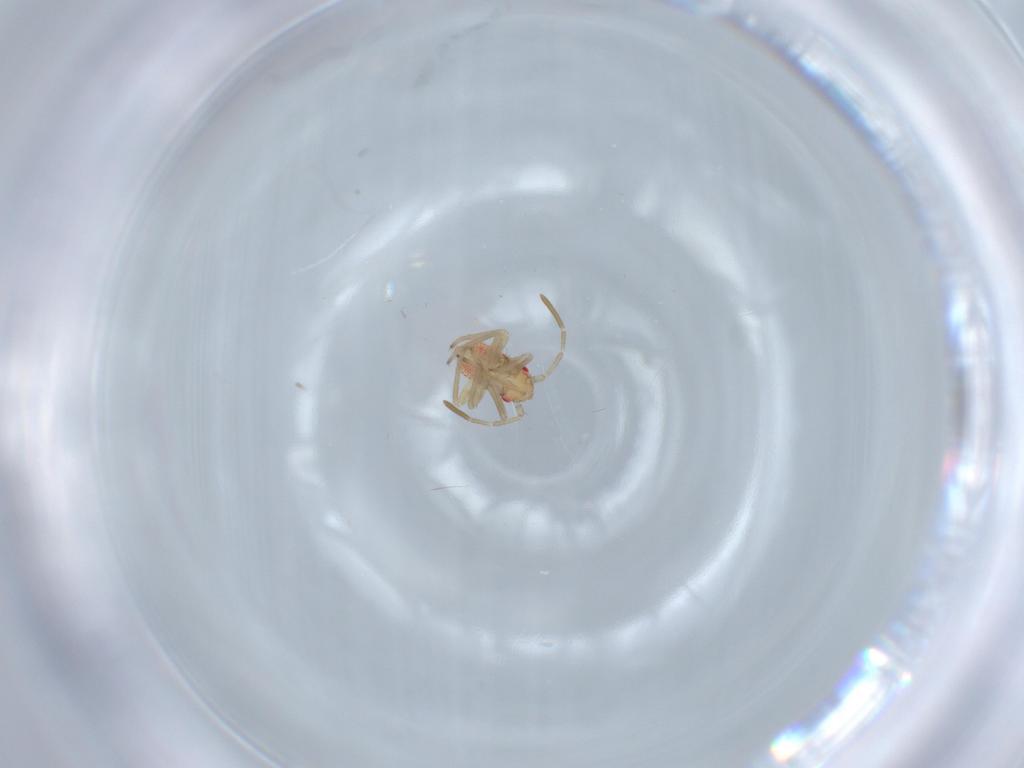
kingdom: Animalia
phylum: Arthropoda
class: Insecta
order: Hemiptera
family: Miridae
